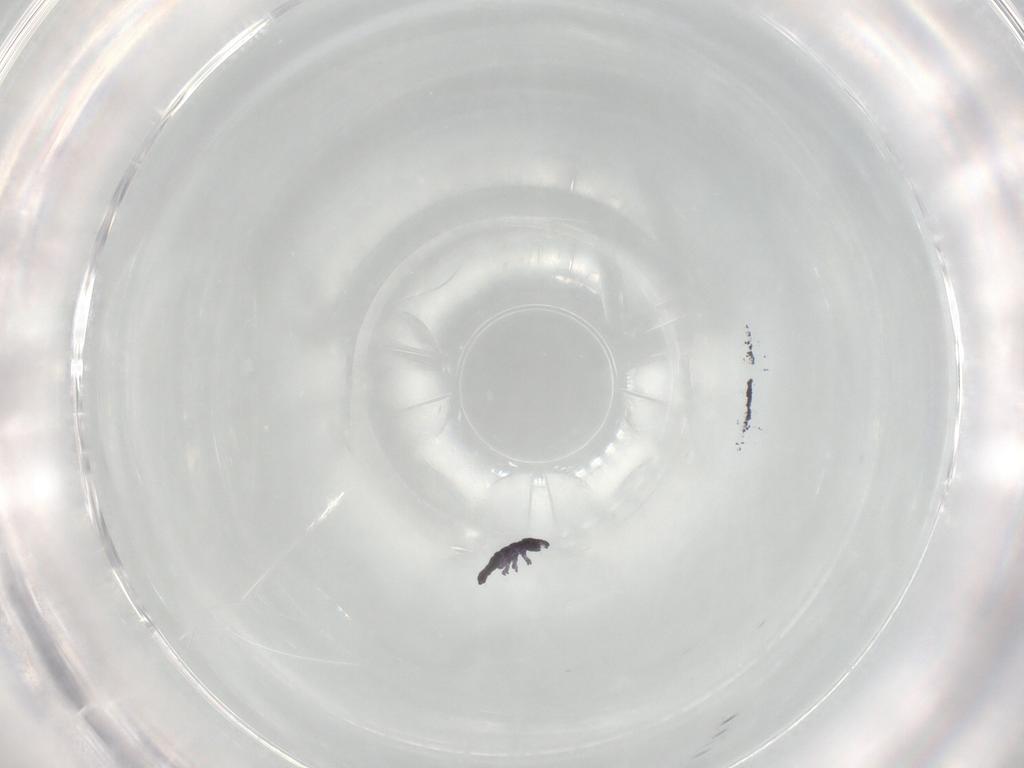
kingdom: Animalia
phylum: Arthropoda
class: Collembola
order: Poduromorpha
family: Hypogastruridae
